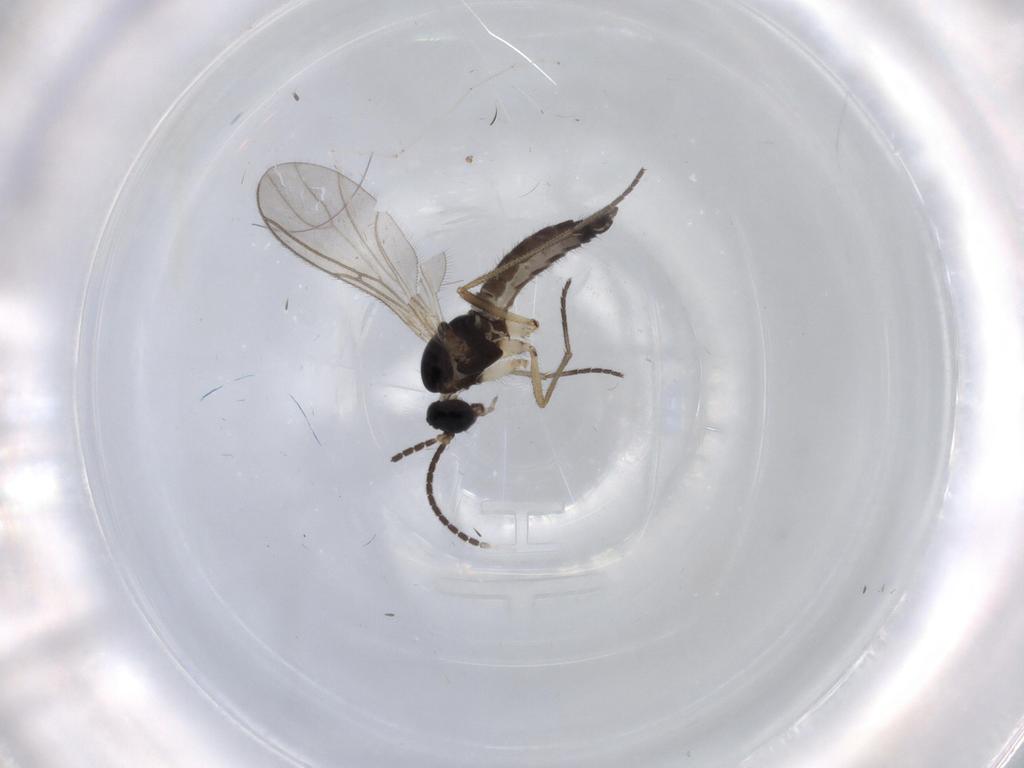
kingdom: Animalia
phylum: Arthropoda
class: Insecta
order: Diptera
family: Sciaridae
